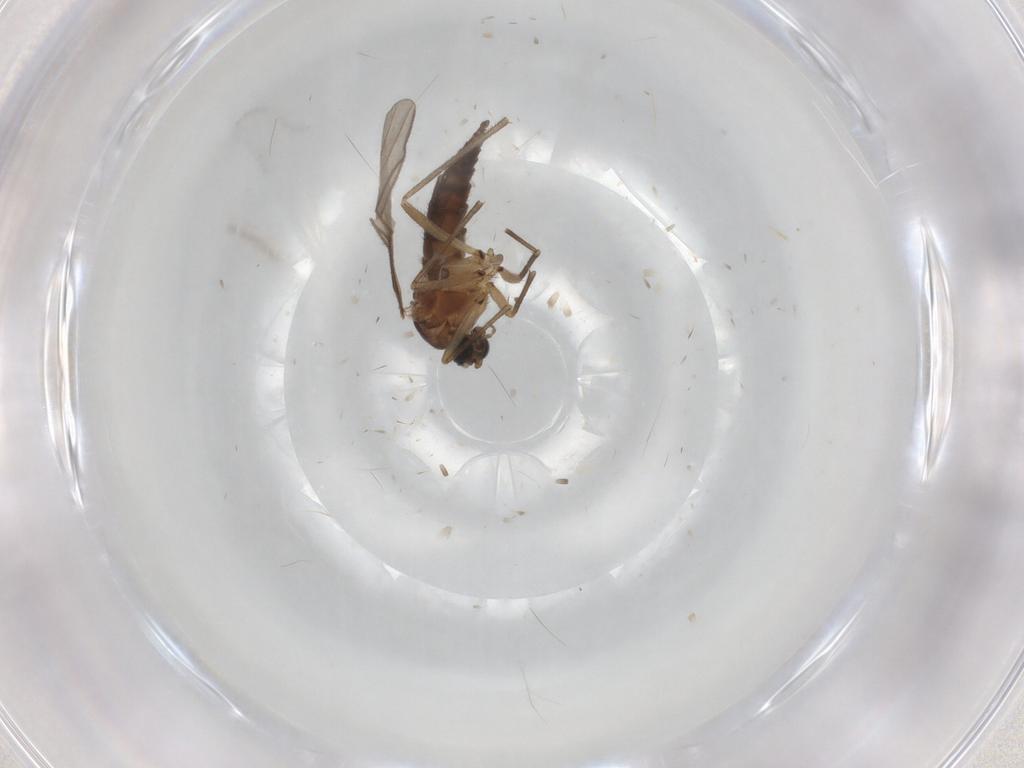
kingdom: Animalia
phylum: Arthropoda
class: Insecta
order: Diptera
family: Sciaridae
